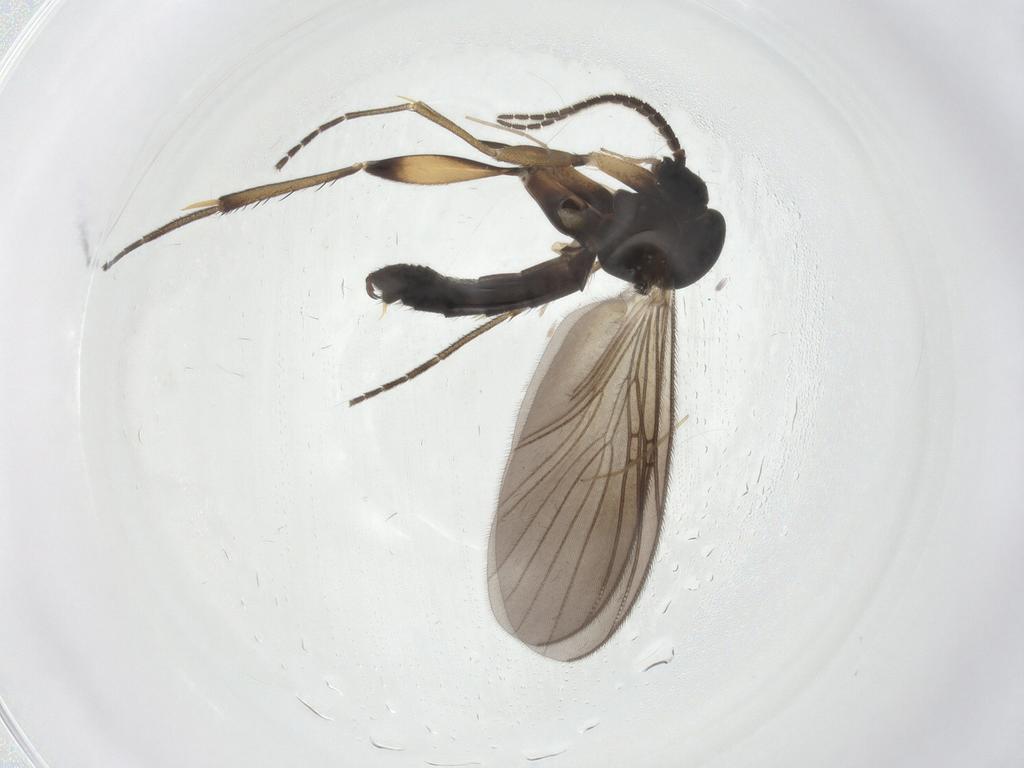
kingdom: Animalia
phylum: Arthropoda
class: Insecta
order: Diptera
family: Mycetophilidae
